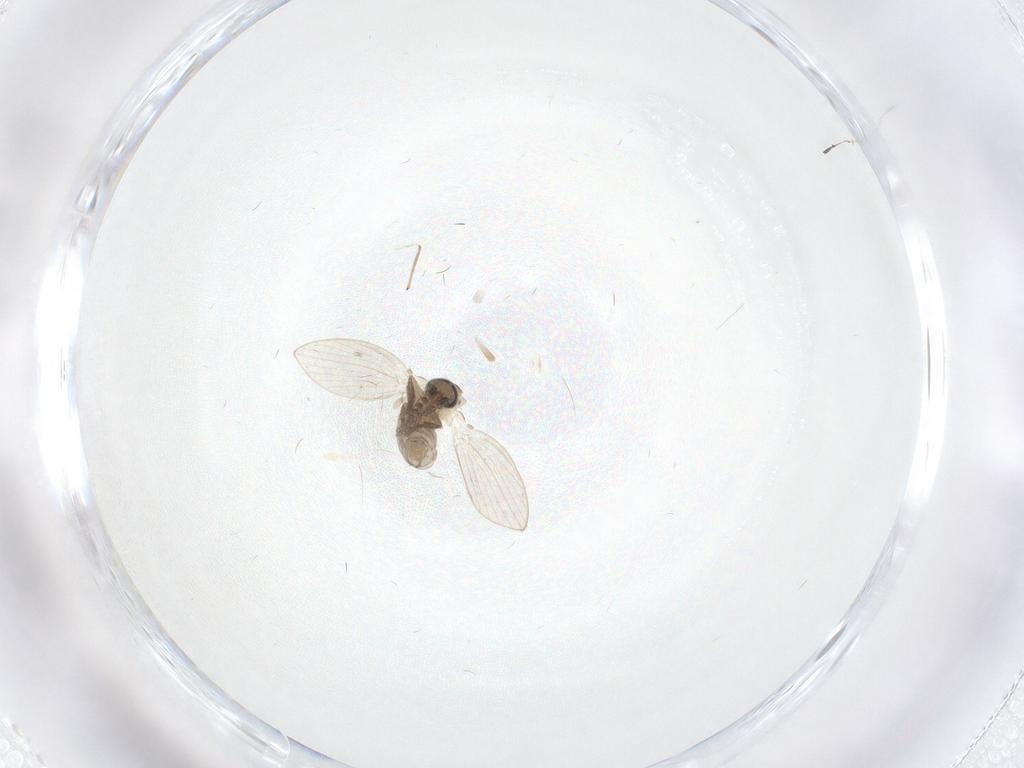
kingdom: Animalia
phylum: Arthropoda
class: Insecta
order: Diptera
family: Psychodidae
